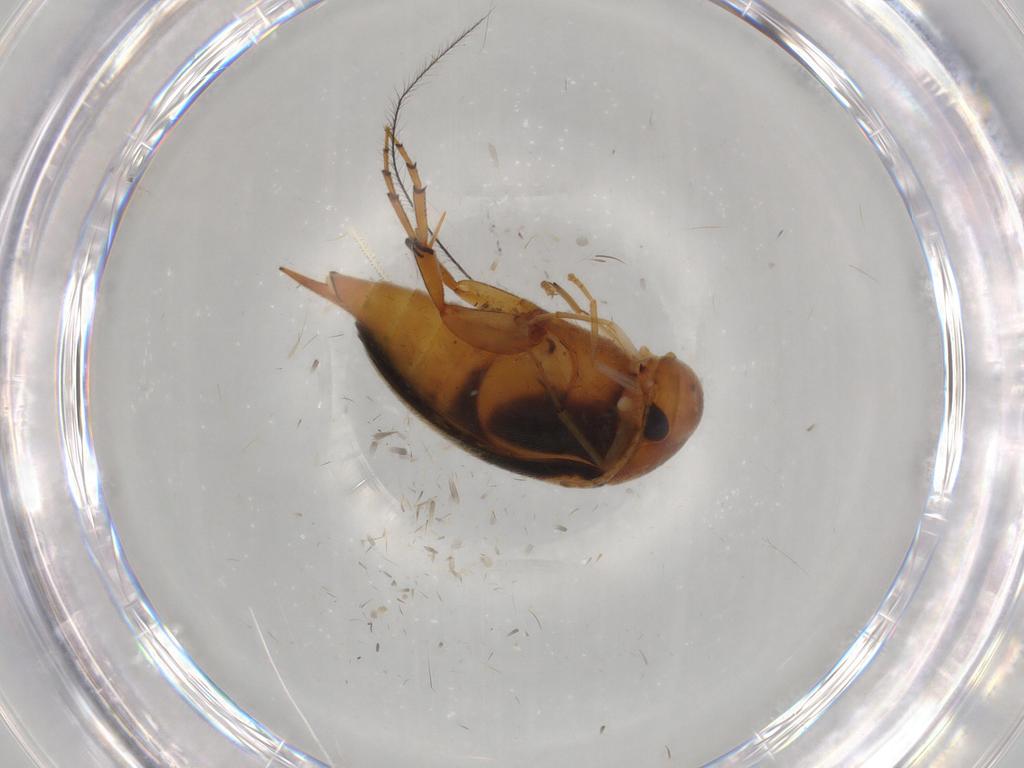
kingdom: Animalia
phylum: Arthropoda
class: Insecta
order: Coleoptera
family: Mordellidae
